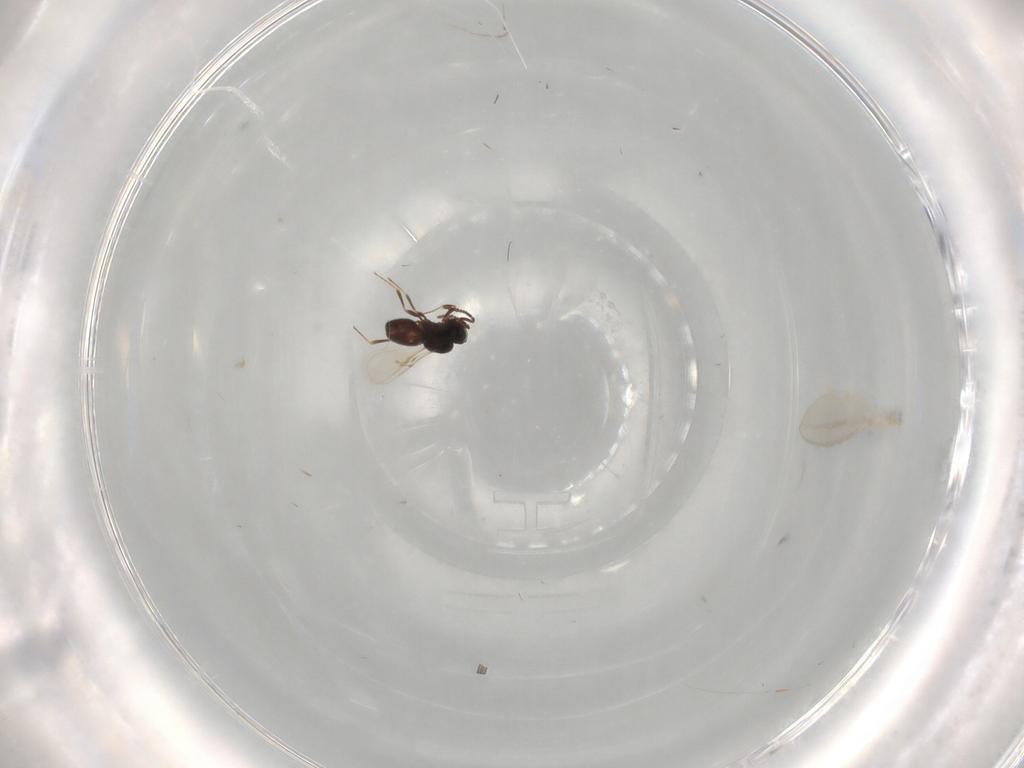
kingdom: Animalia
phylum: Arthropoda
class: Insecta
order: Hymenoptera
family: Scelionidae
